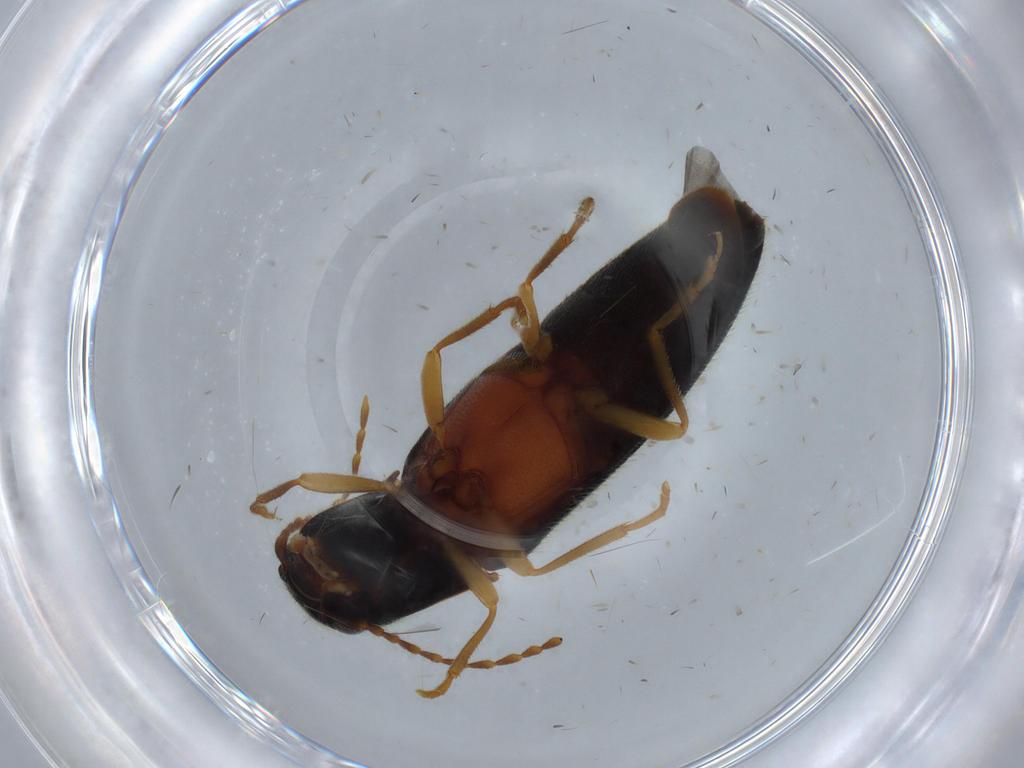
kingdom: Animalia
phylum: Arthropoda
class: Insecta
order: Coleoptera
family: Elateridae
